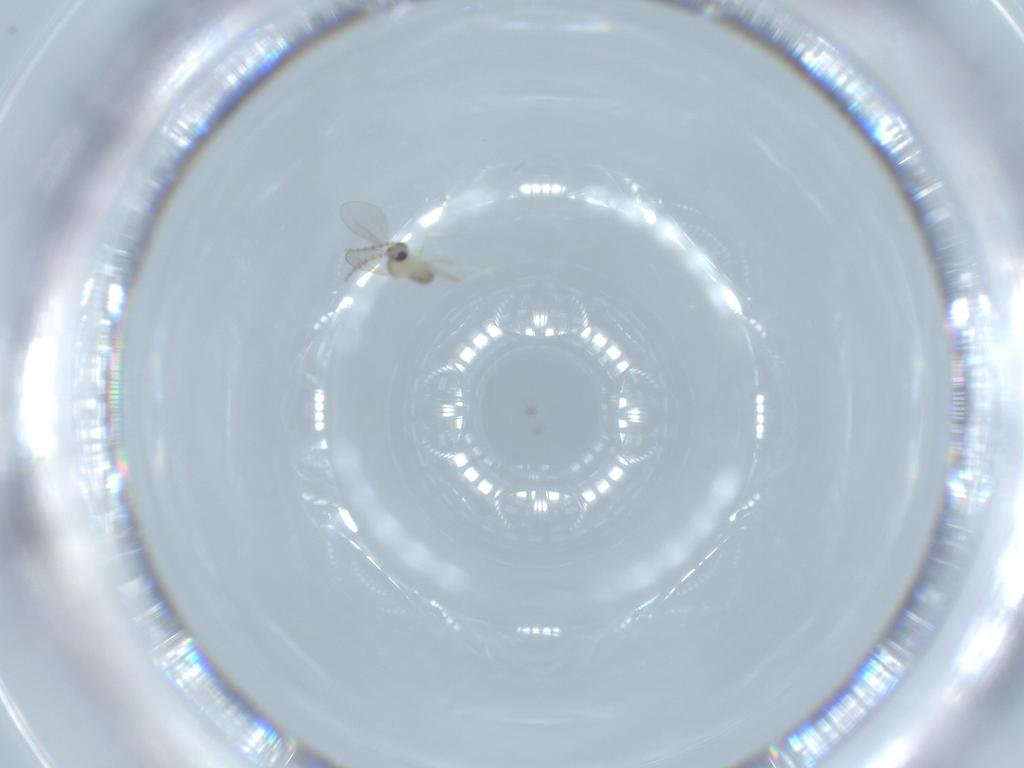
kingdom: Animalia
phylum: Arthropoda
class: Insecta
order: Diptera
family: Cecidomyiidae
